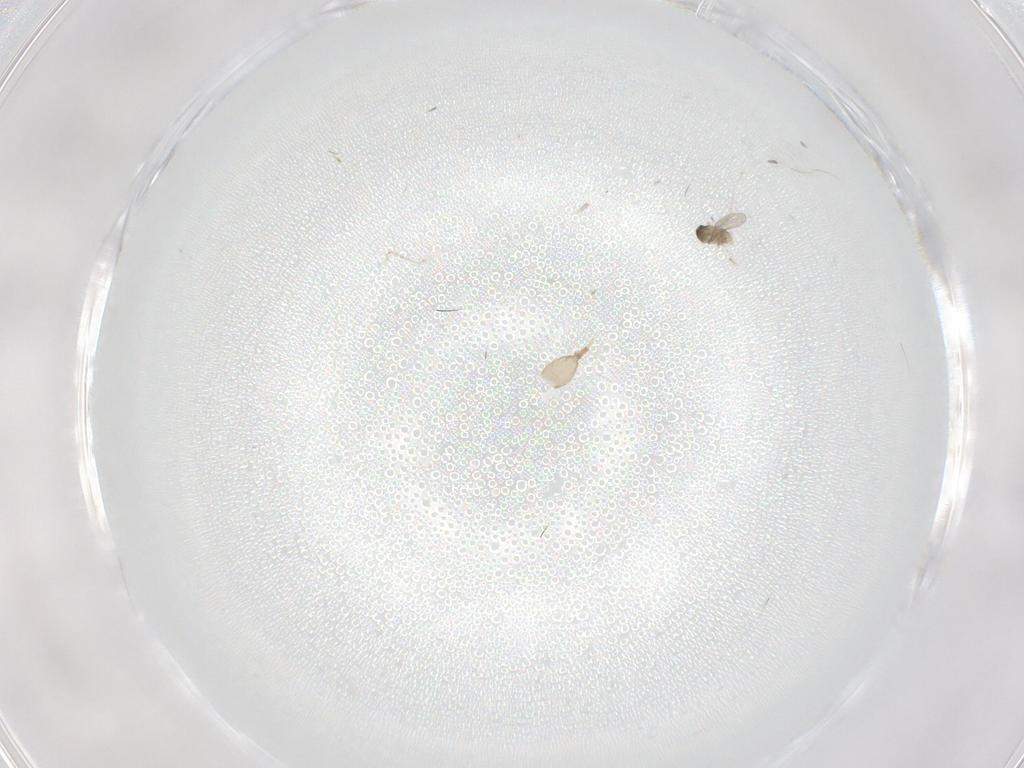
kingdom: Animalia
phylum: Arthropoda
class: Insecta
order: Diptera
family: Cecidomyiidae
